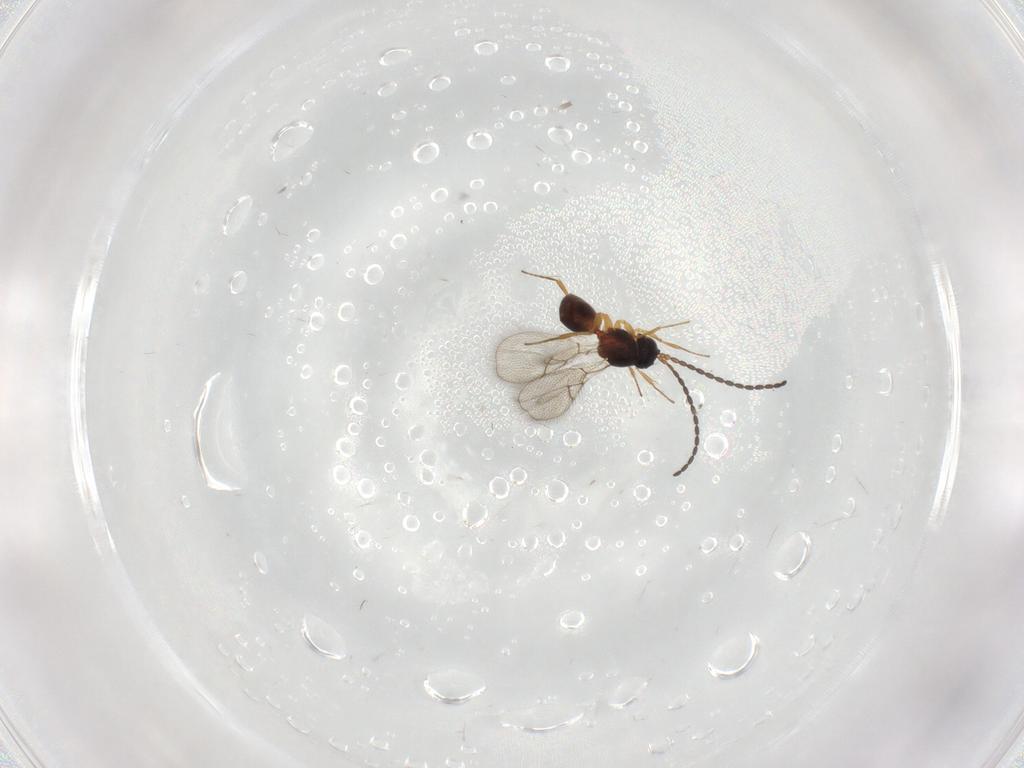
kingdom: Animalia
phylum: Arthropoda
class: Insecta
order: Hymenoptera
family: Figitidae
